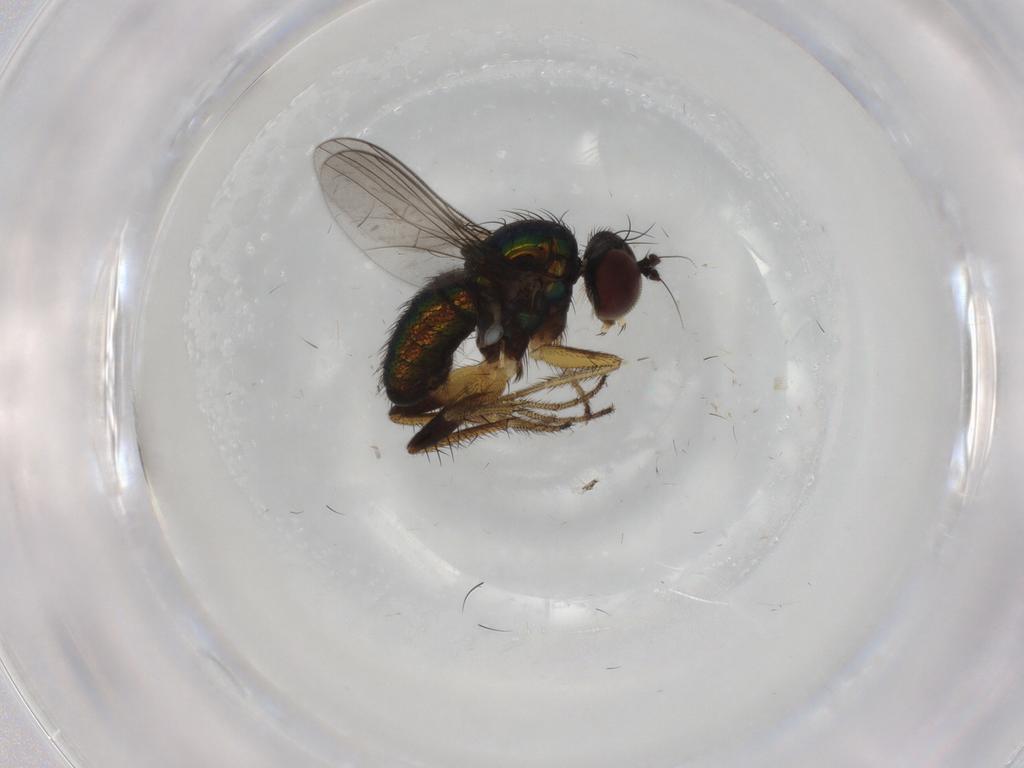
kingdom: Animalia
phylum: Arthropoda
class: Insecta
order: Diptera
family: Dolichopodidae
